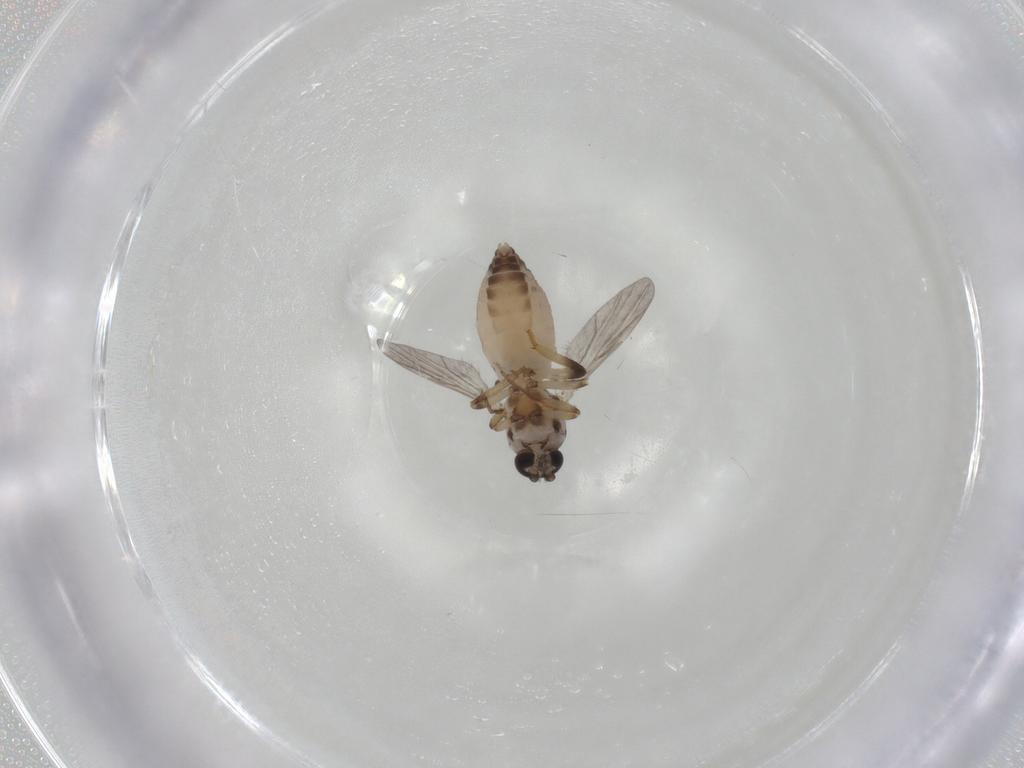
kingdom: Animalia
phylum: Arthropoda
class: Insecta
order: Diptera
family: Ceratopogonidae
